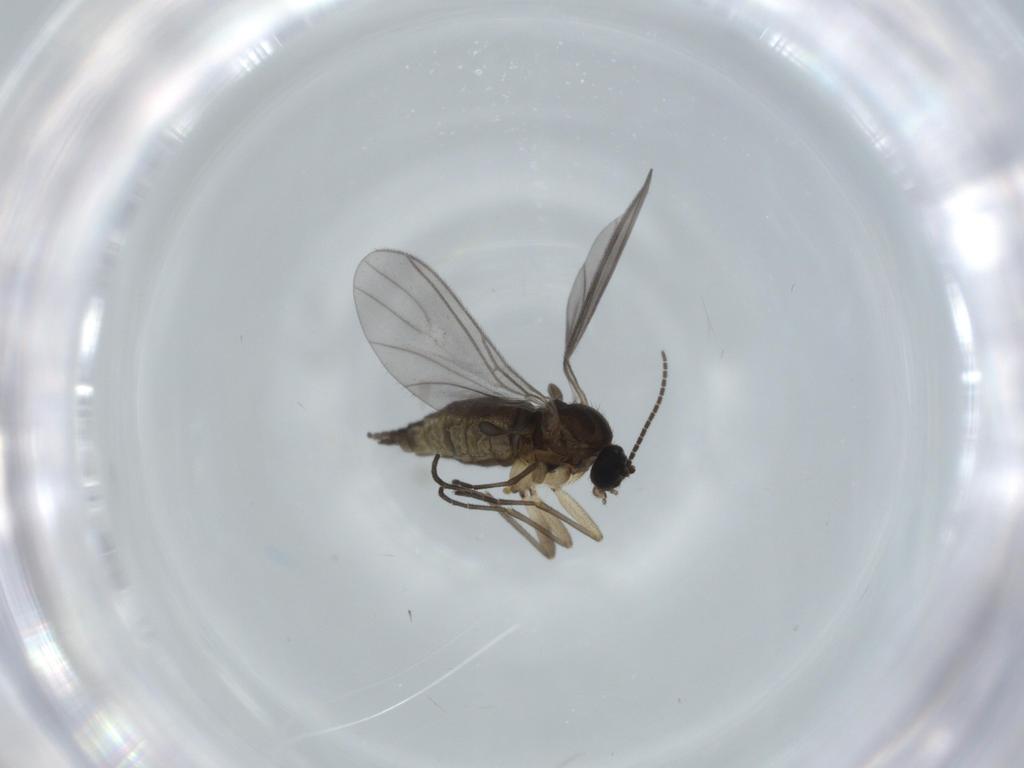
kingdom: Animalia
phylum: Arthropoda
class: Insecta
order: Diptera
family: Sciaridae
